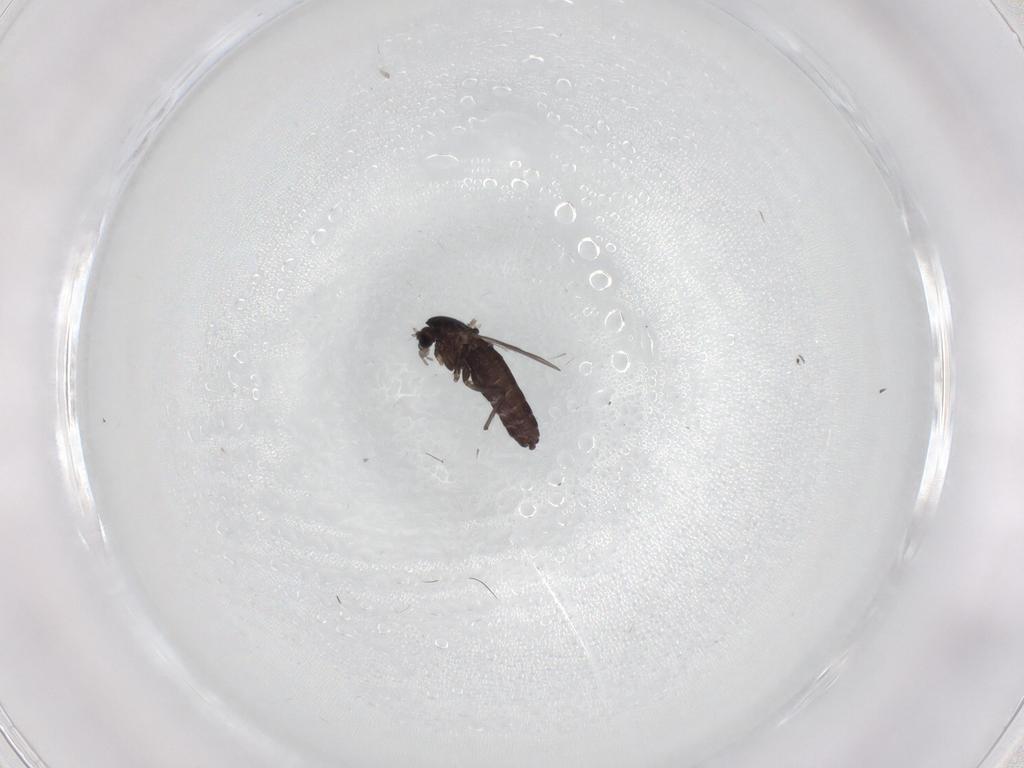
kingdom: Animalia
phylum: Arthropoda
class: Insecta
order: Diptera
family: Chironomidae
